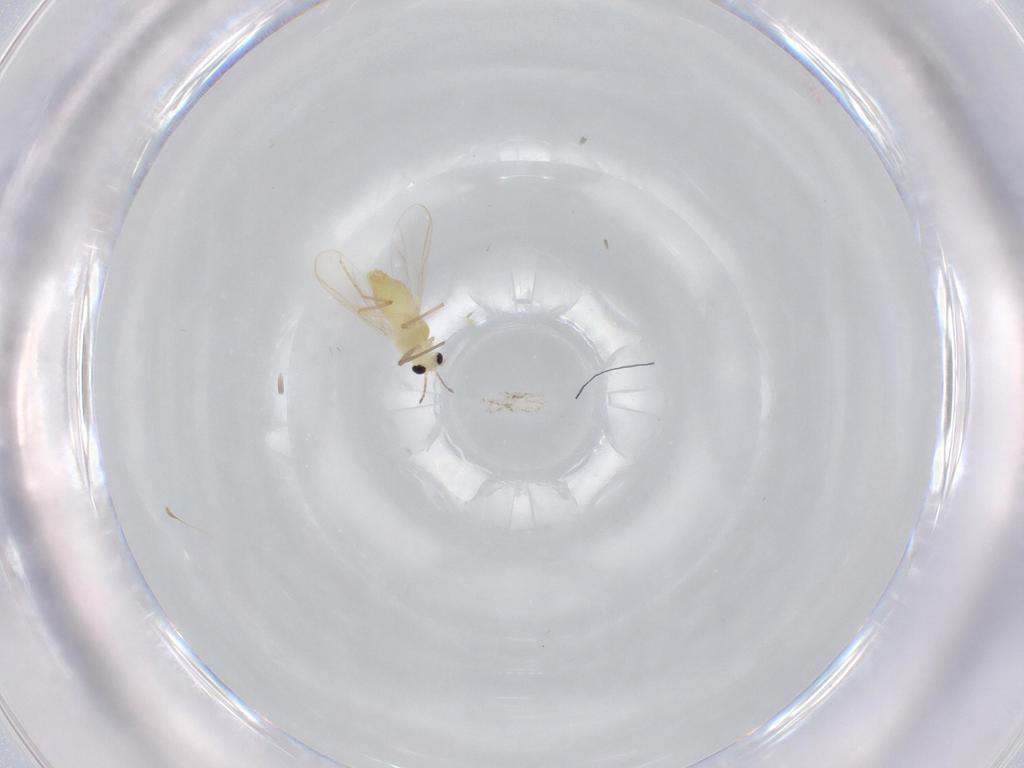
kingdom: Animalia
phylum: Arthropoda
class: Insecta
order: Diptera
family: Chironomidae
